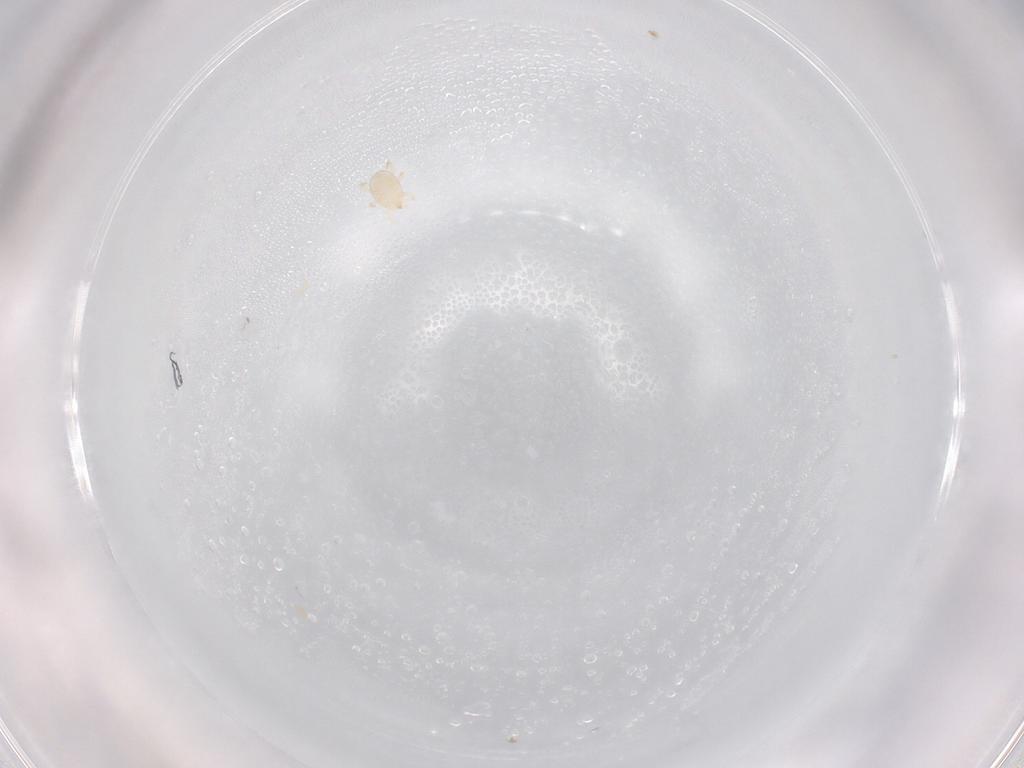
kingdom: Animalia
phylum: Arthropoda
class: Arachnida
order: Mesostigmata
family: Melicharidae
